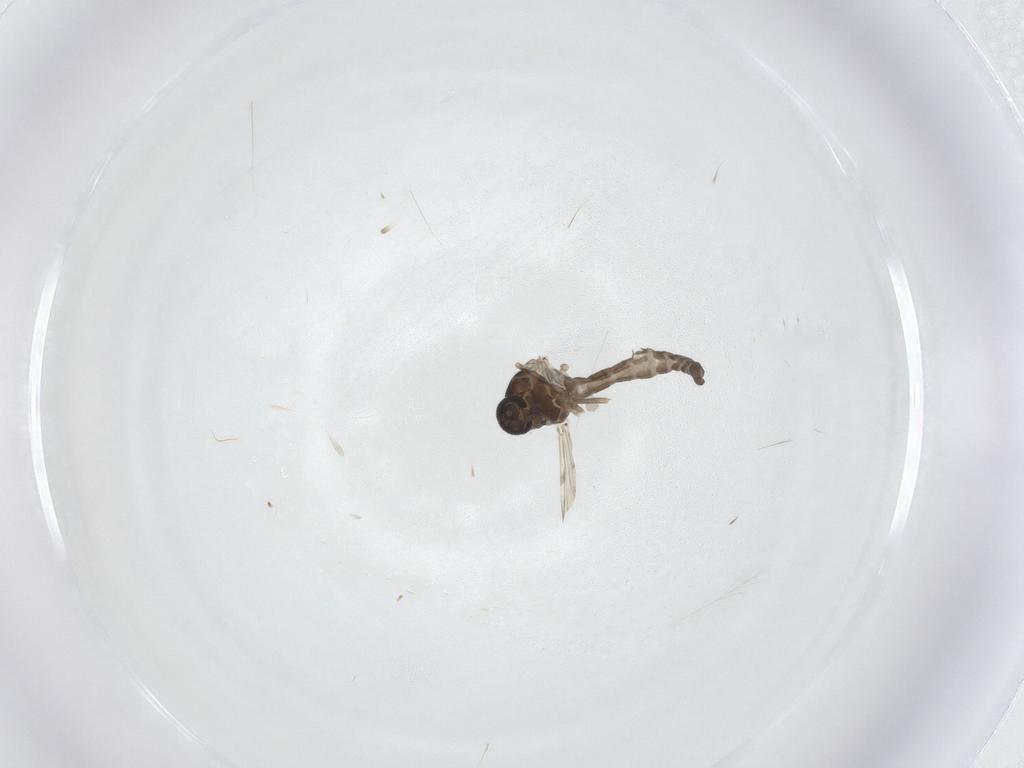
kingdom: Animalia
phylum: Arthropoda
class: Insecta
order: Diptera
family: Ceratopogonidae
